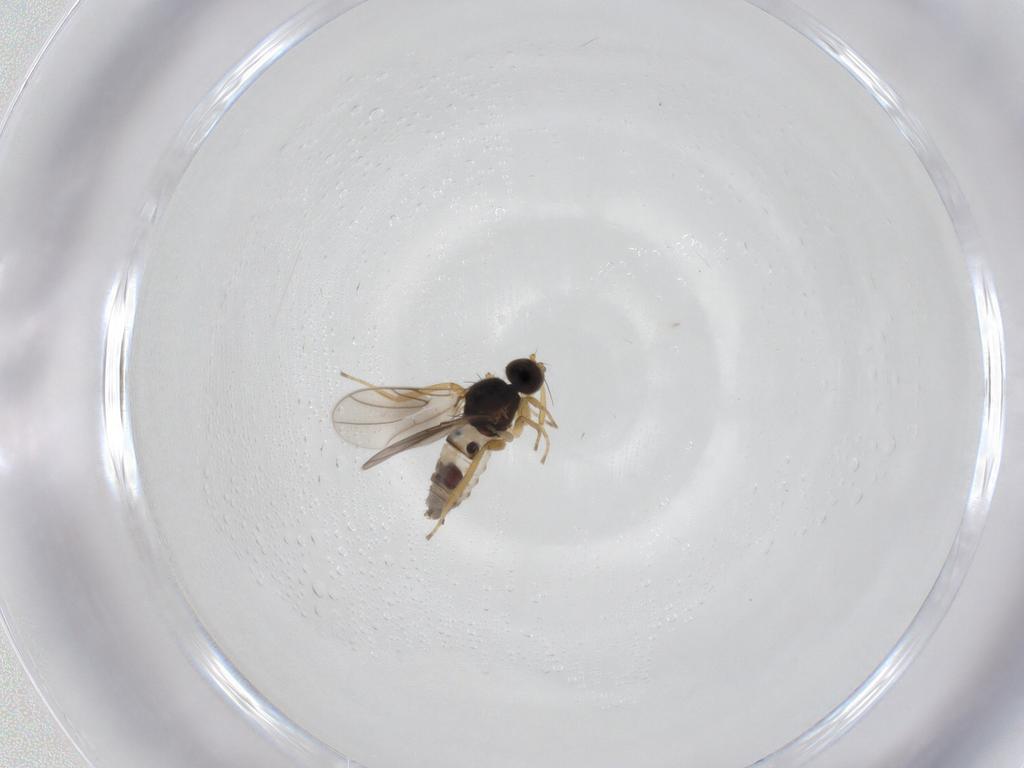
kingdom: Animalia
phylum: Arthropoda
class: Insecta
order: Diptera
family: Hybotidae
